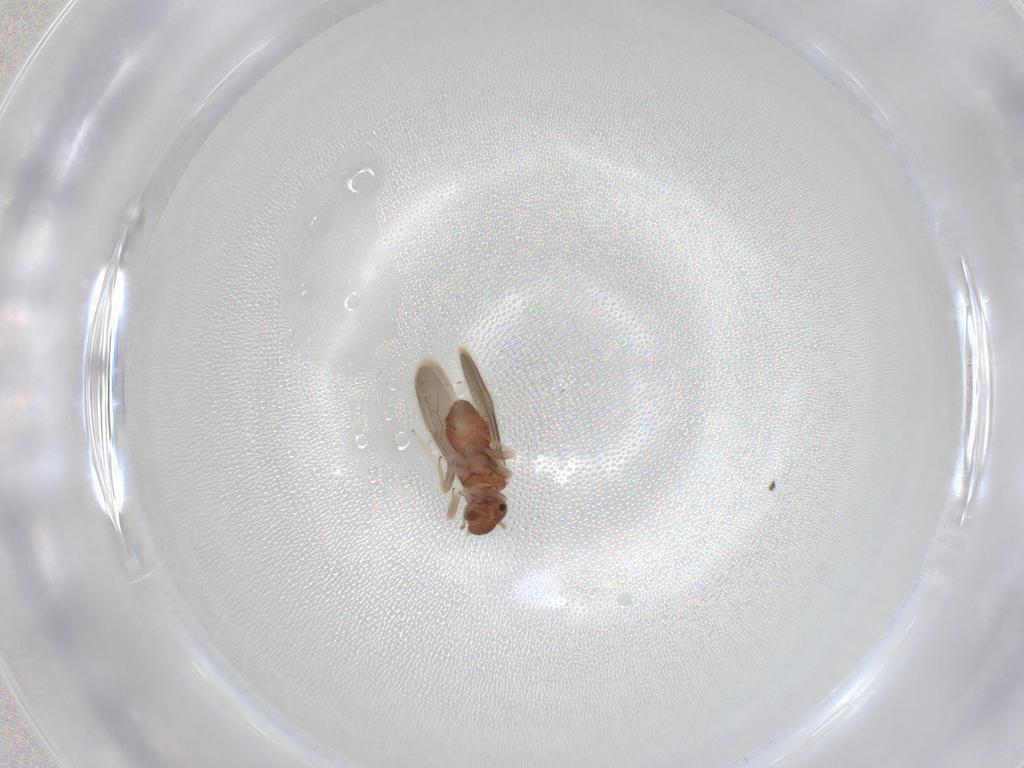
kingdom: Animalia
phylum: Arthropoda
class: Insecta
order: Psocodea
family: Archipsocidae
